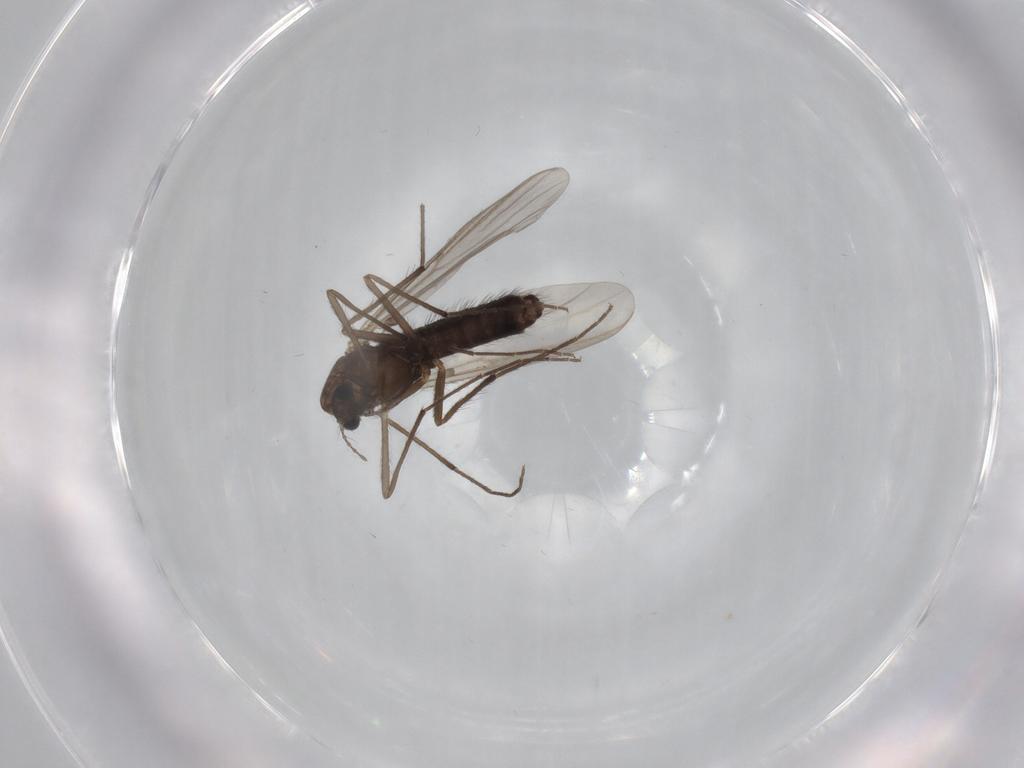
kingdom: Animalia
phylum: Arthropoda
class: Insecta
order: Diptera
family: Chironomidae
